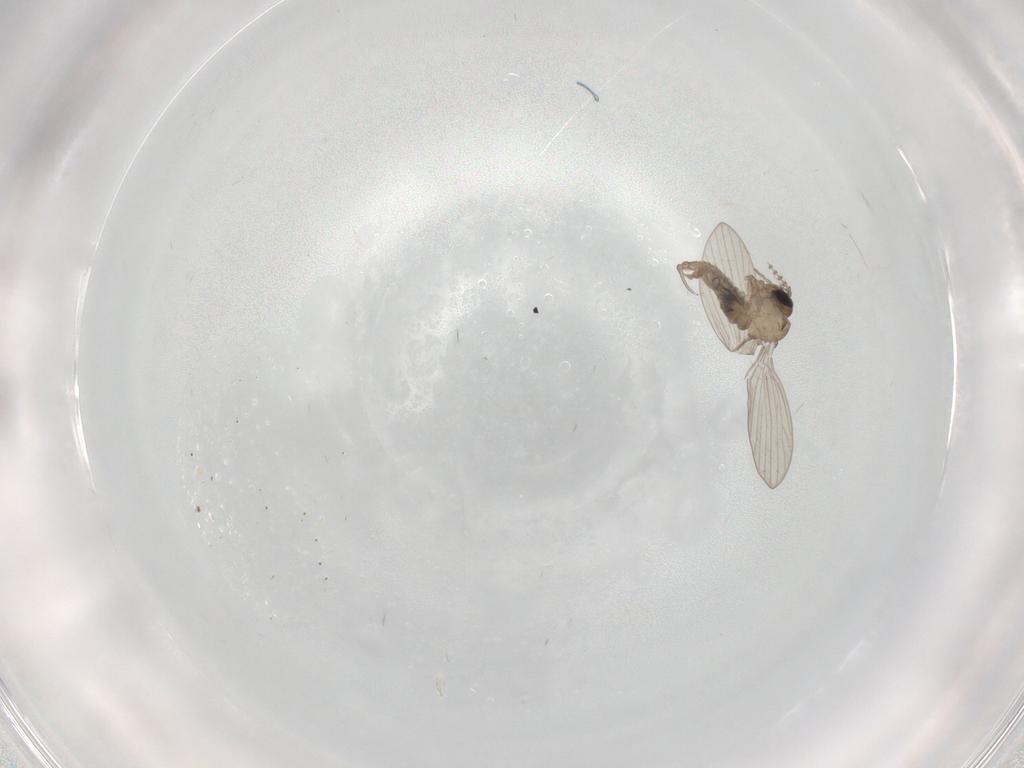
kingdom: Animalia
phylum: Arthropoda
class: Insecta
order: Diptera
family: Psychodidae
